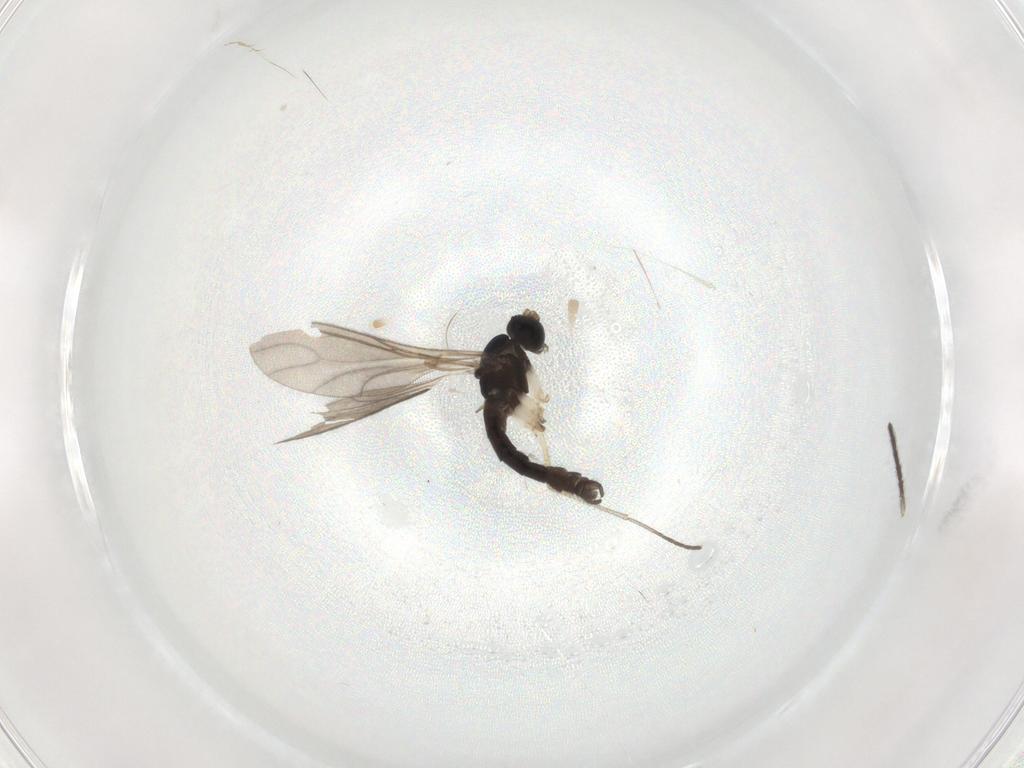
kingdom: Animalia
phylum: Arthropoda
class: Insecta
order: Diptera
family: Sciaridae
